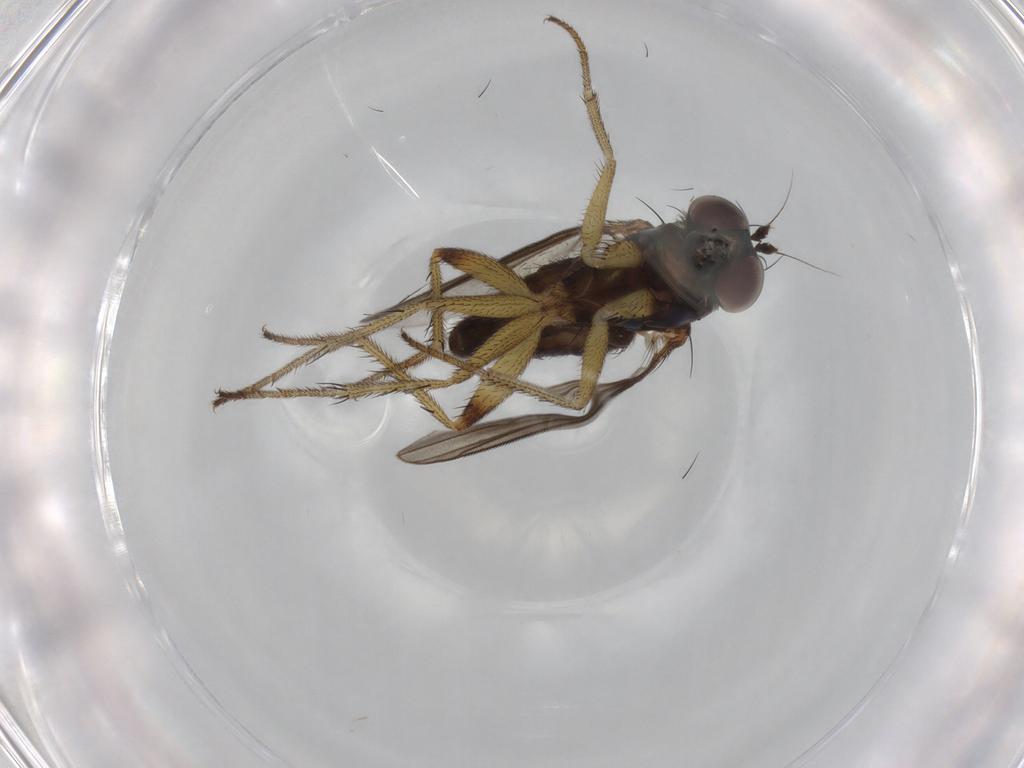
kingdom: Animalia
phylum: Arthropoda
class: Insecta
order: Diptera
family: Dolichopodidae
